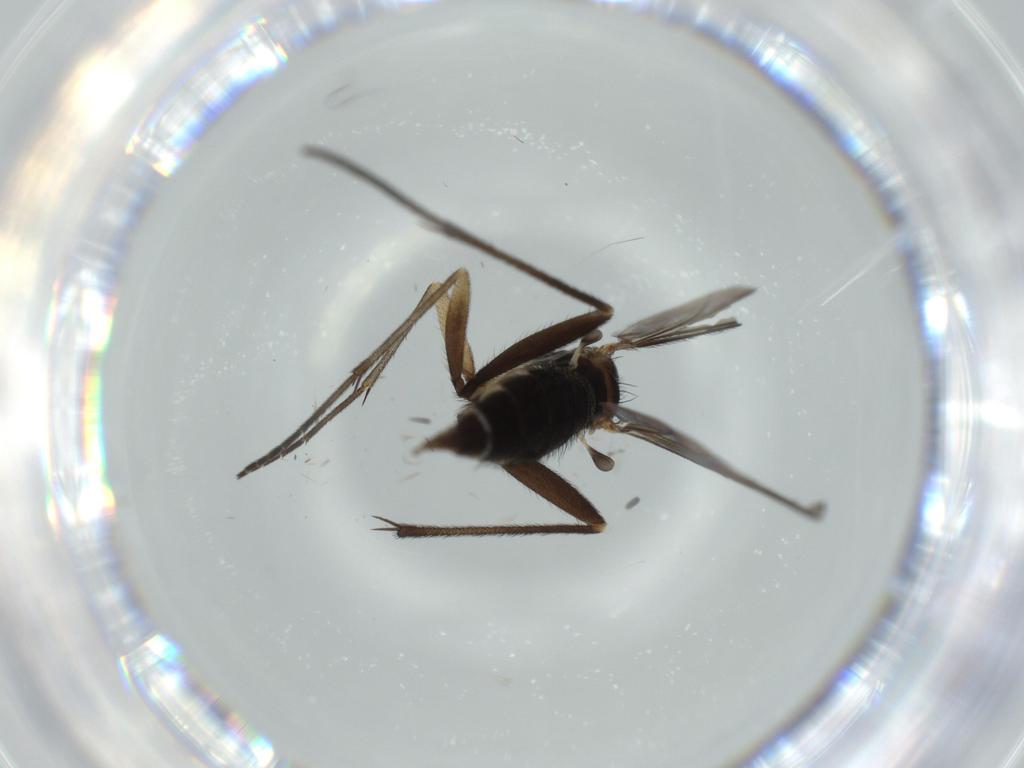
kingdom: Animalia
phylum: Arthropoda
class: Insecta
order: Diptera
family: Sciaridae
